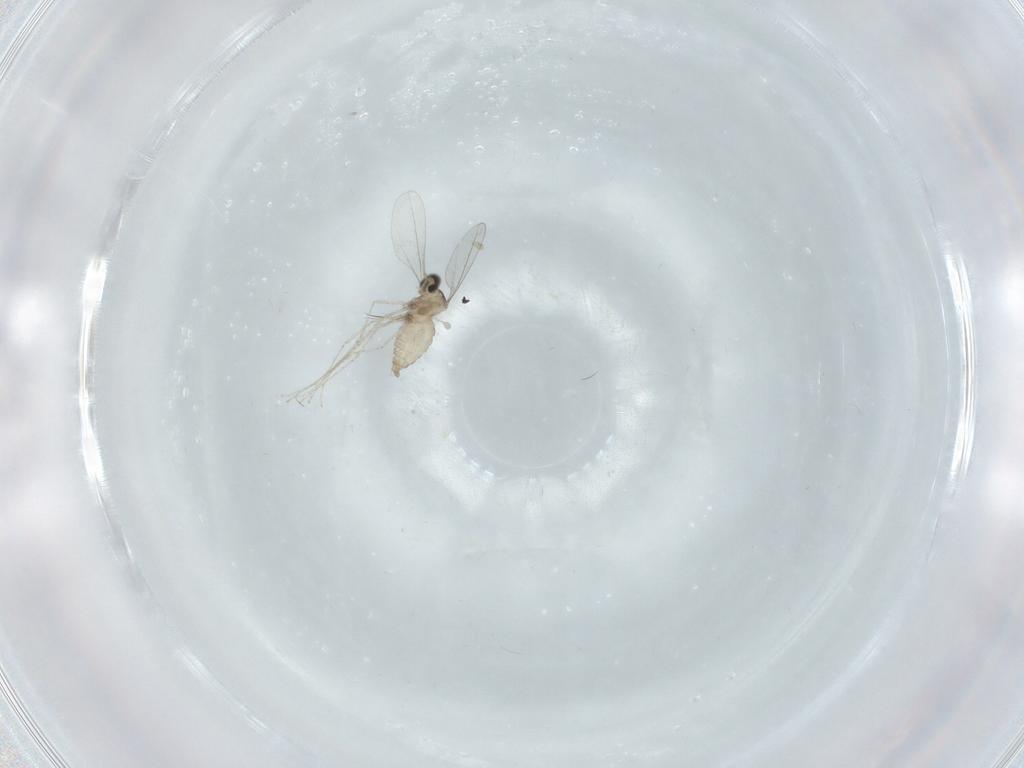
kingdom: Animalia
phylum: Arthropoda
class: Insecta
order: Diptera
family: Cecidomyiidae
